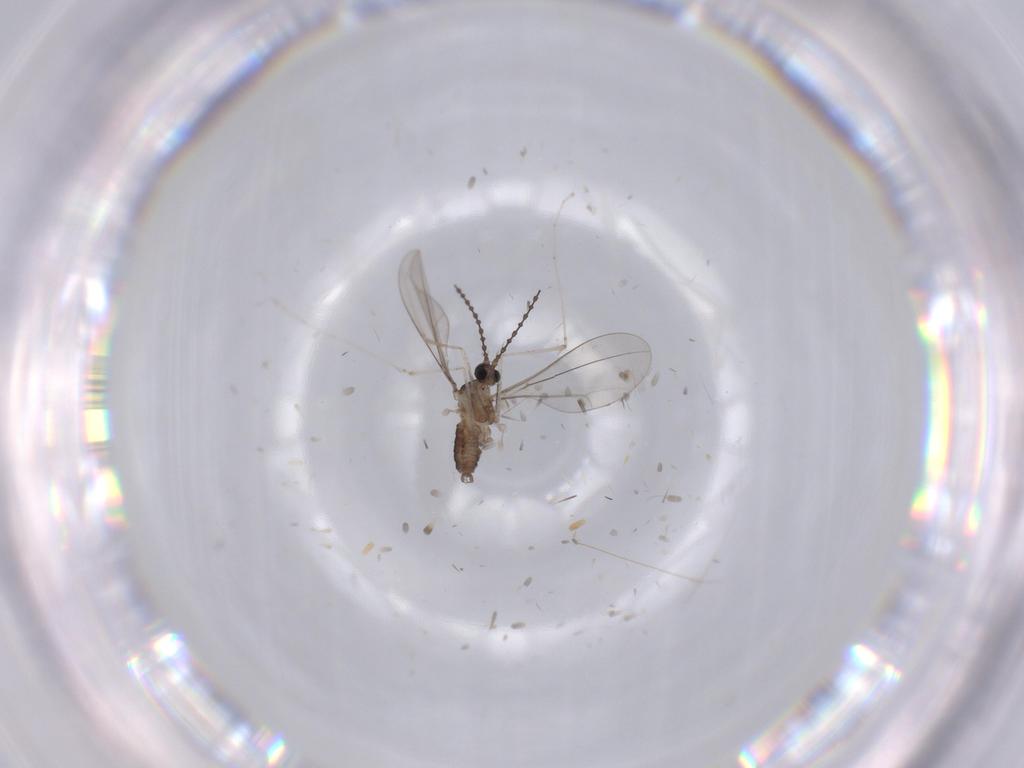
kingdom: Animalia
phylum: Arthropoda
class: Insecta
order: Diptera
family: Cecidomyiidae
